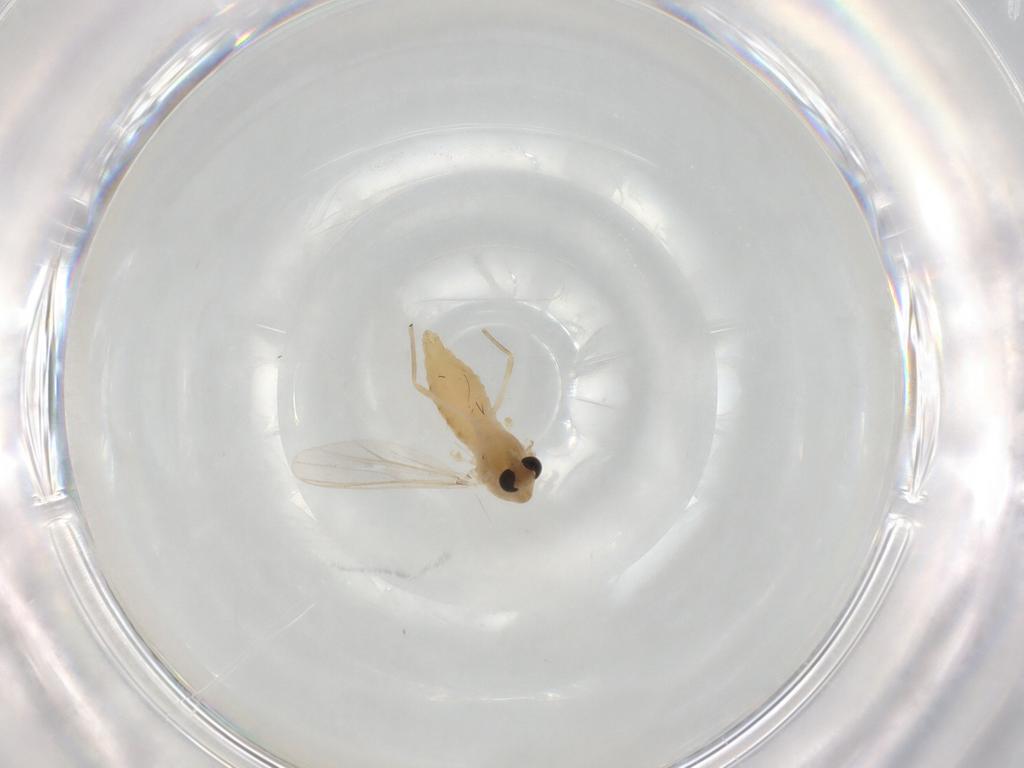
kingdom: Animalia
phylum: Arthropoda
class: Insecta
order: Diptera
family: Chironomidae
